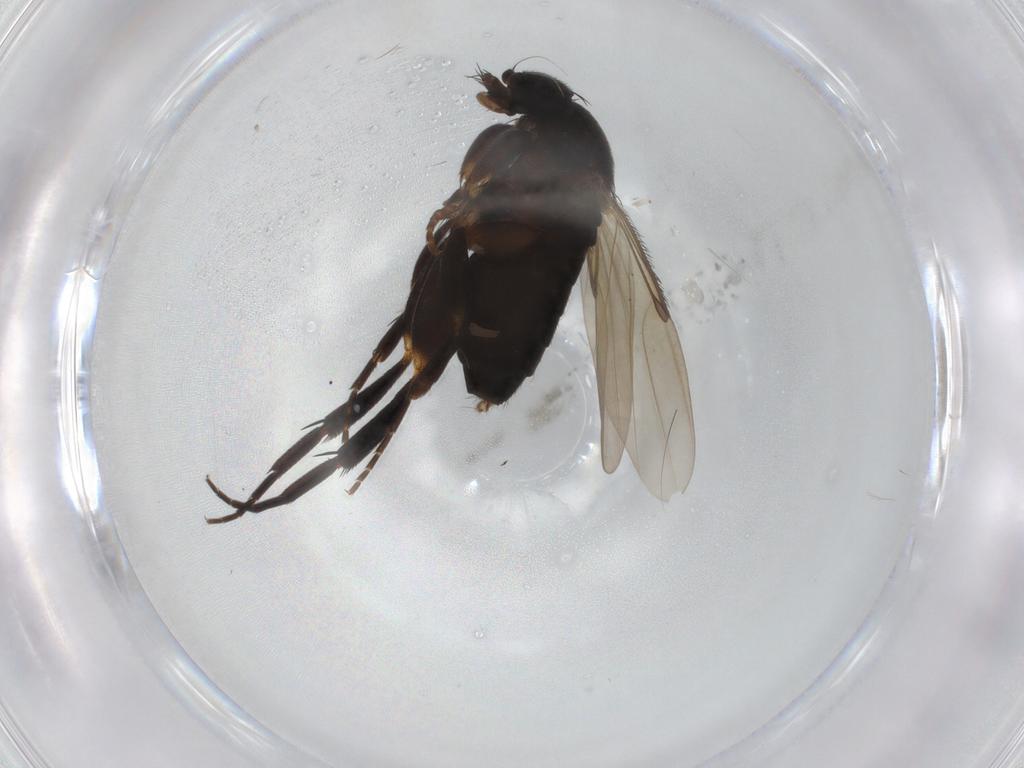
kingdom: Animalia
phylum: Arthropoda
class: Insecta
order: Diptera
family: Phoridae
